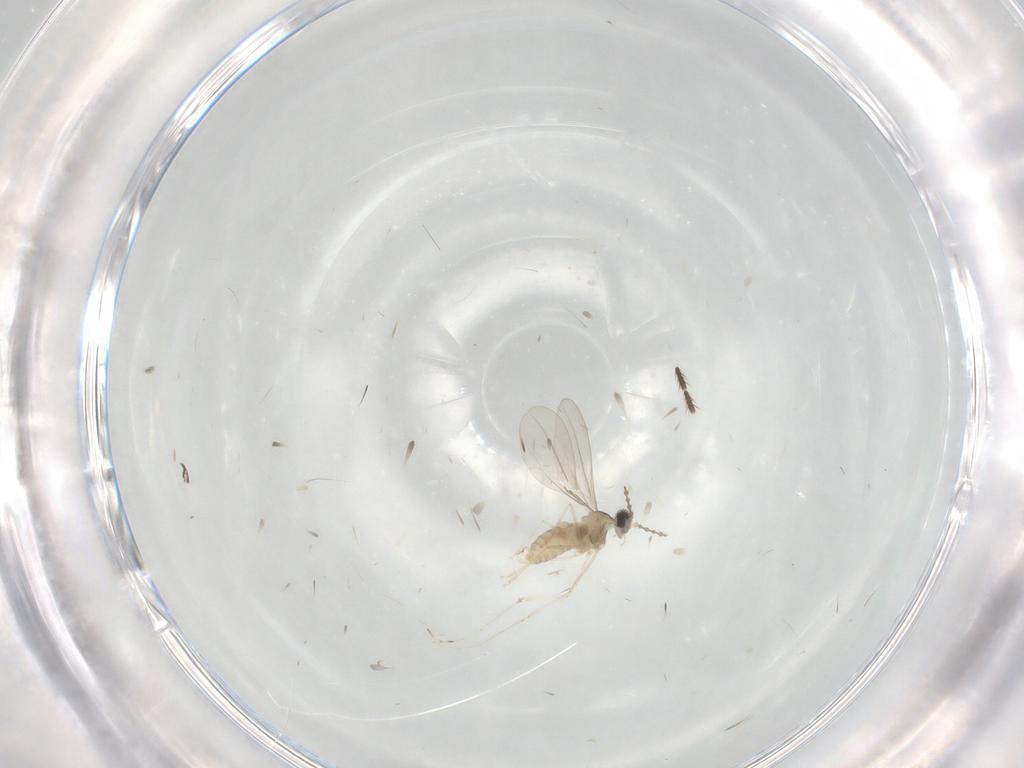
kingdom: Animalia
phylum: Arthropoda
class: Insecta
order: Diptera
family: Cecidomyiidae
